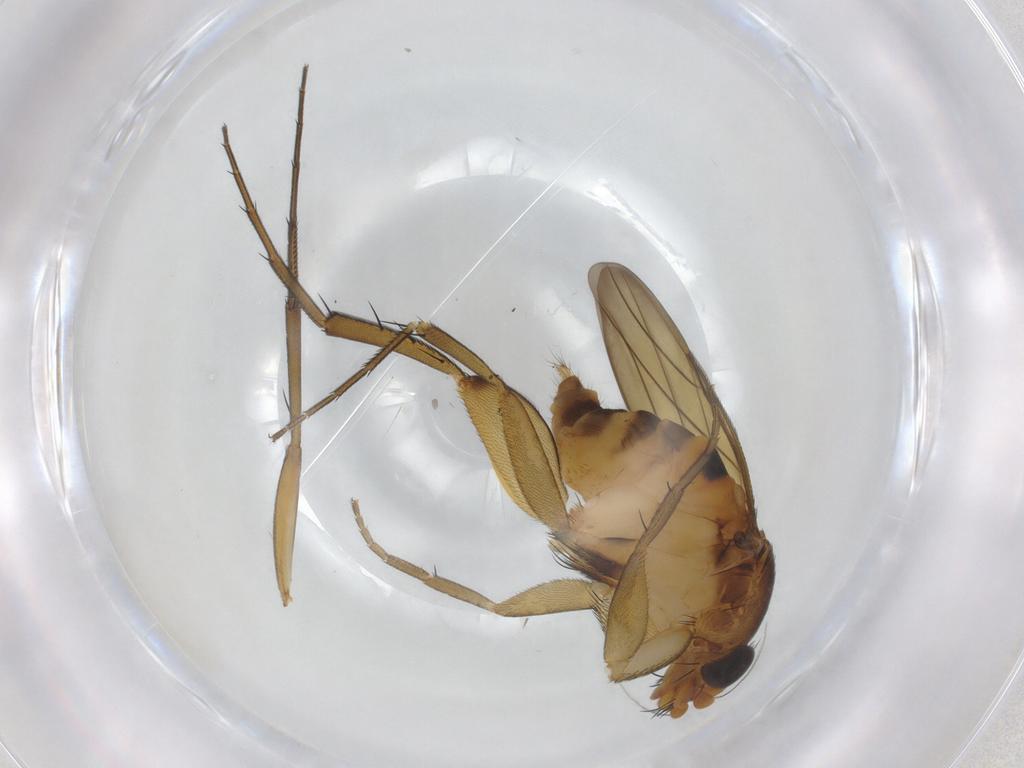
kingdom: Animalia
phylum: Arthropoda
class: Insecta
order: Diptera
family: Phoridae
